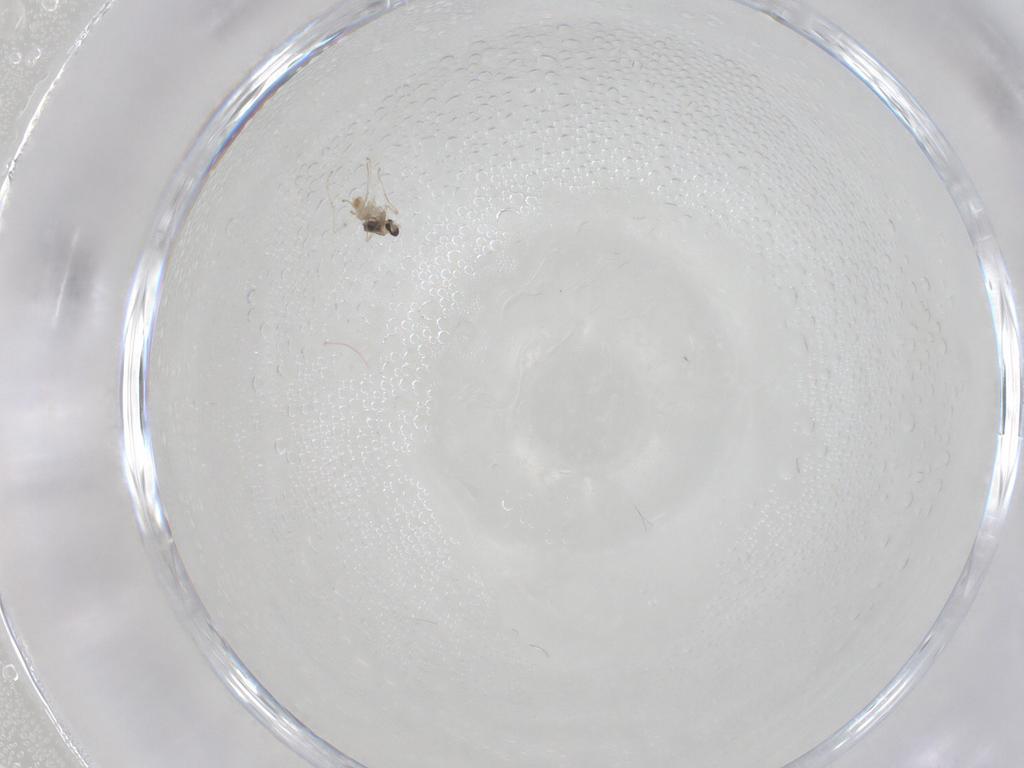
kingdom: Animalia
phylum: Arthropoda
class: Insecta
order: Diptera
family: Cecidomyiidae
